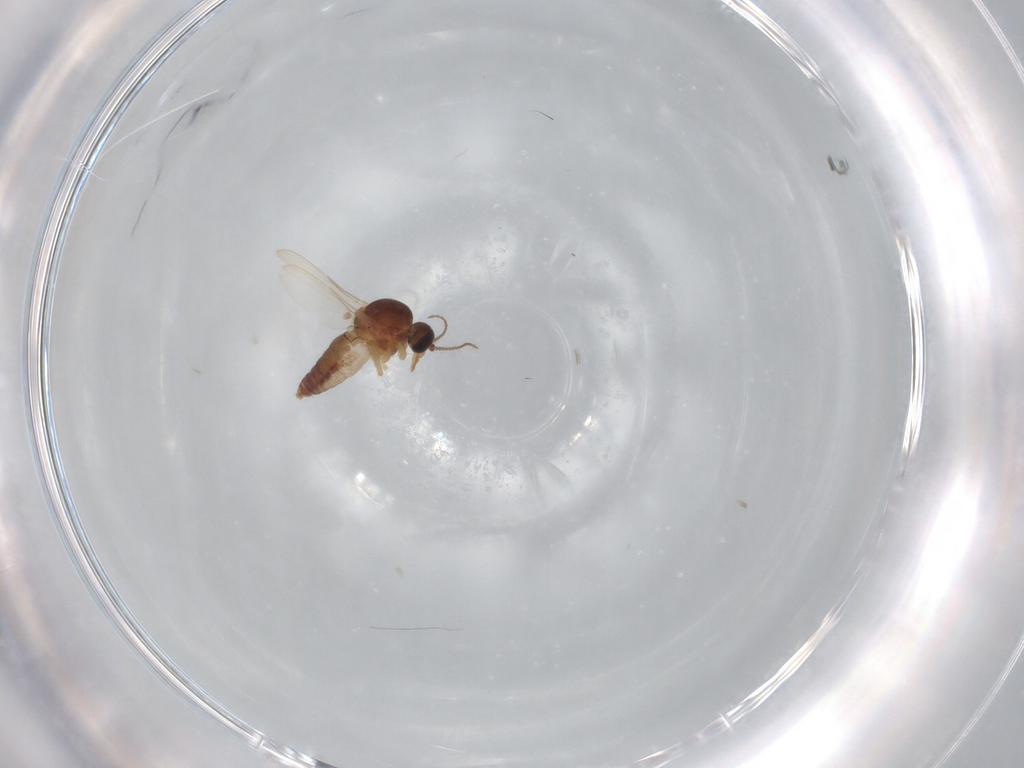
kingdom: Animalia
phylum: Arthropoda
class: Insecta
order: Diptera
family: Ceratopogonidae
